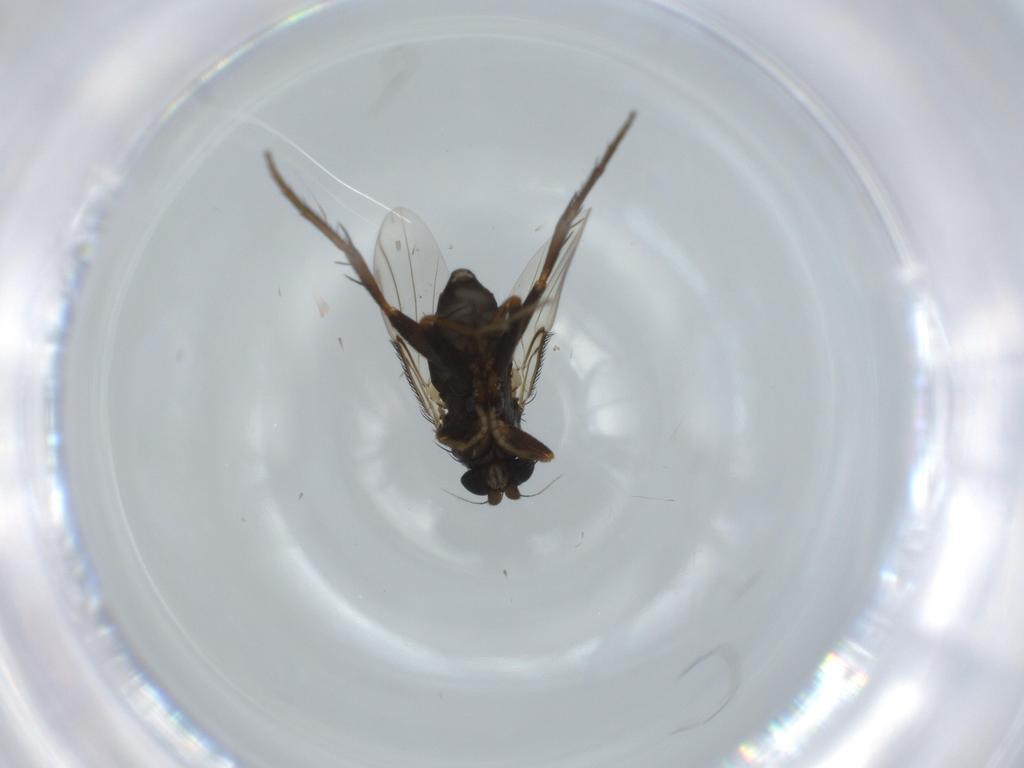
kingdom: Animalia
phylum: Arthropoda
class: Insecta
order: Diptera
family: Phoridae
